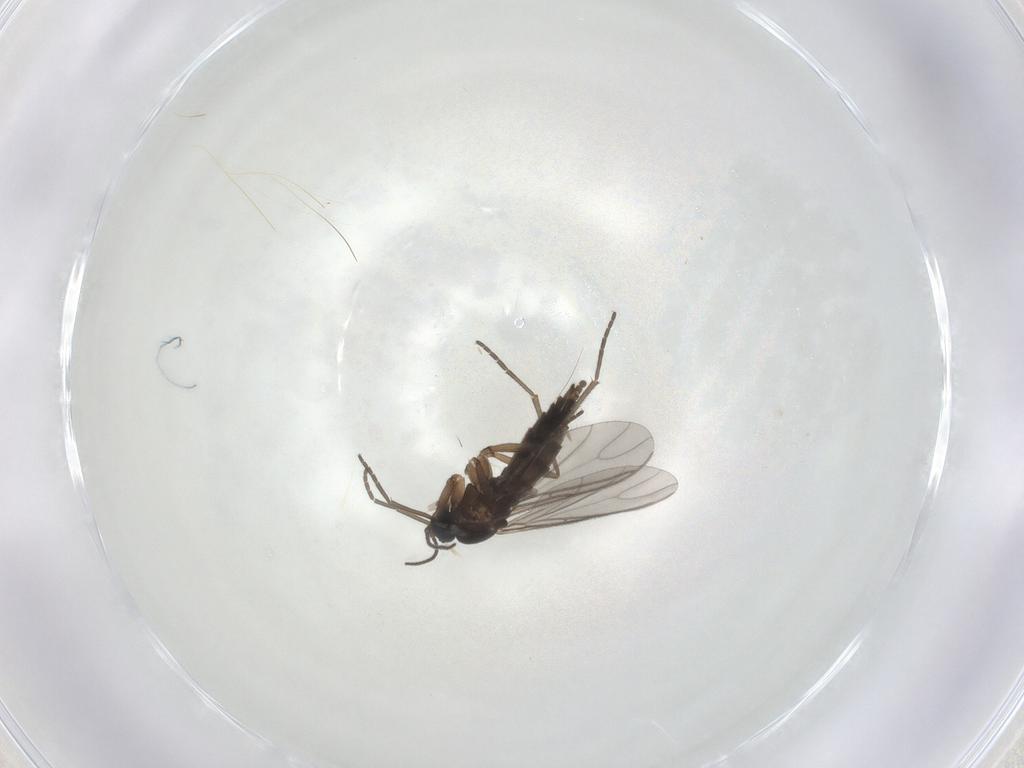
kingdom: Animalia
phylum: Arthropoda
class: Insecta
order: Diptera
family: Sciaridae
